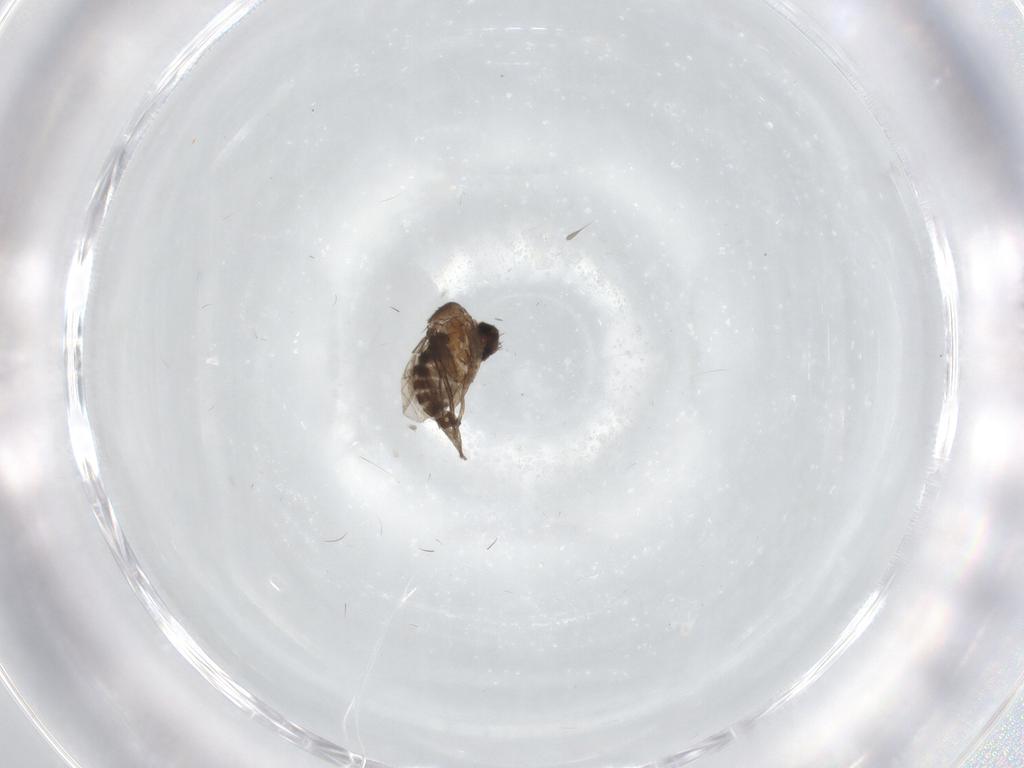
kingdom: Animalia
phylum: Arthropoda
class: Insecta
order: Diptera
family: Cecidomyiidae
